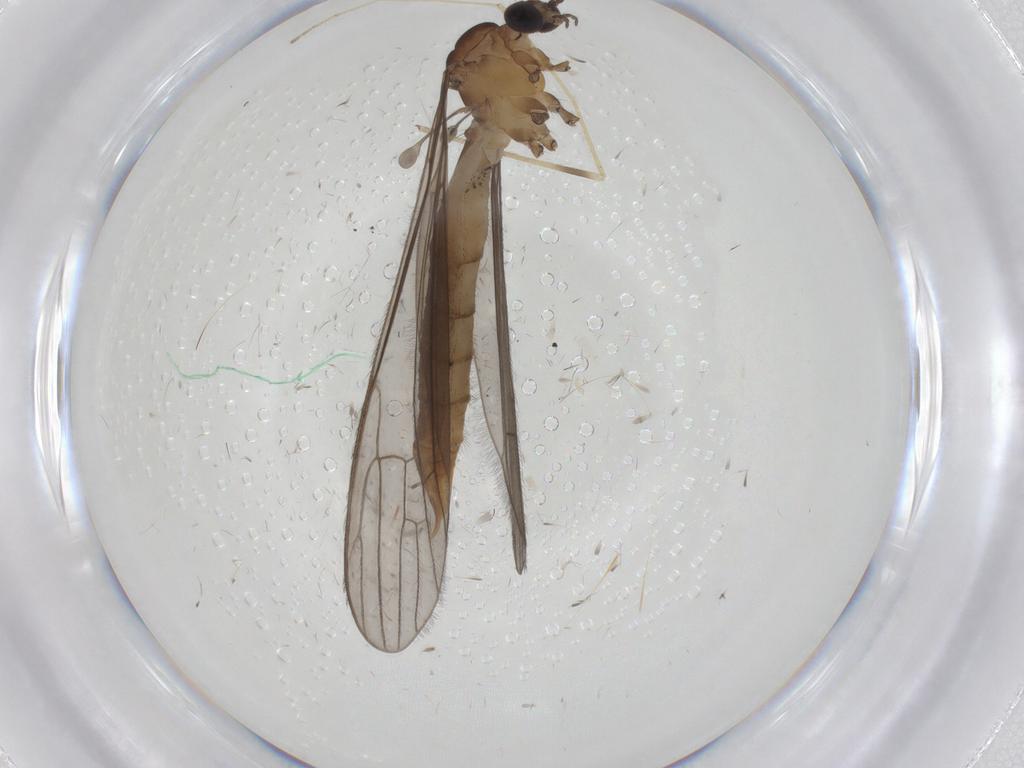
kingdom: Animalia
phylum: Arthropoda
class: Insecta
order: Diptera
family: Limoniidae
